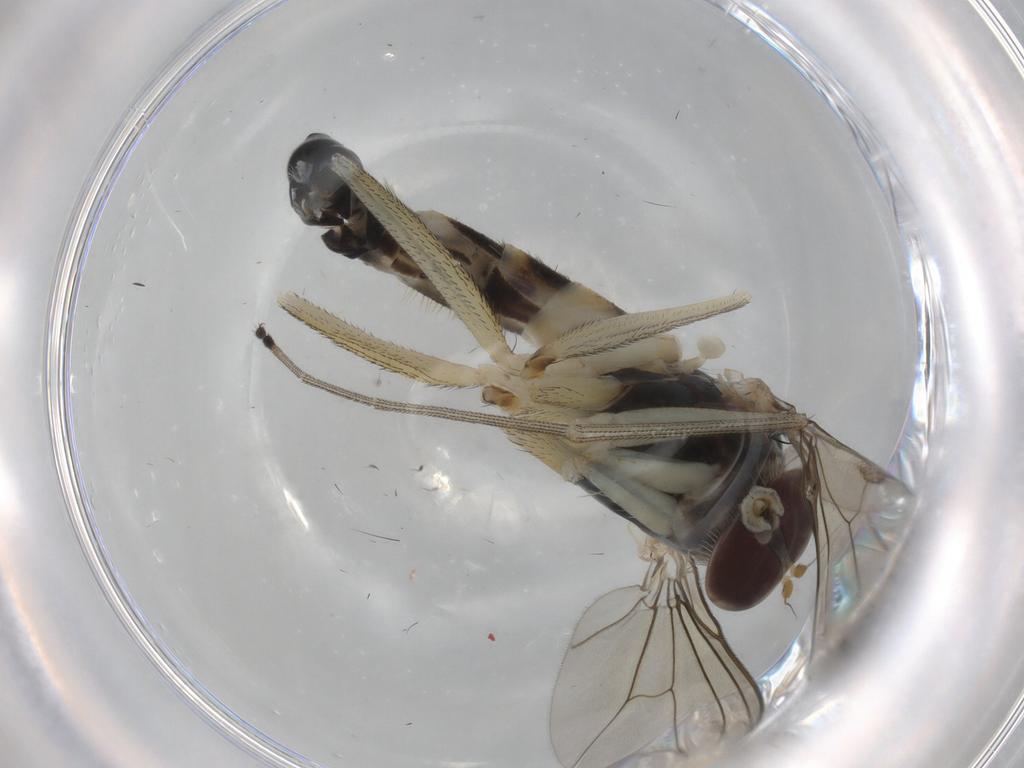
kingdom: Animalia
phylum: Arthropoda
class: Insecta
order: Diptera
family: Dolichopodidae
